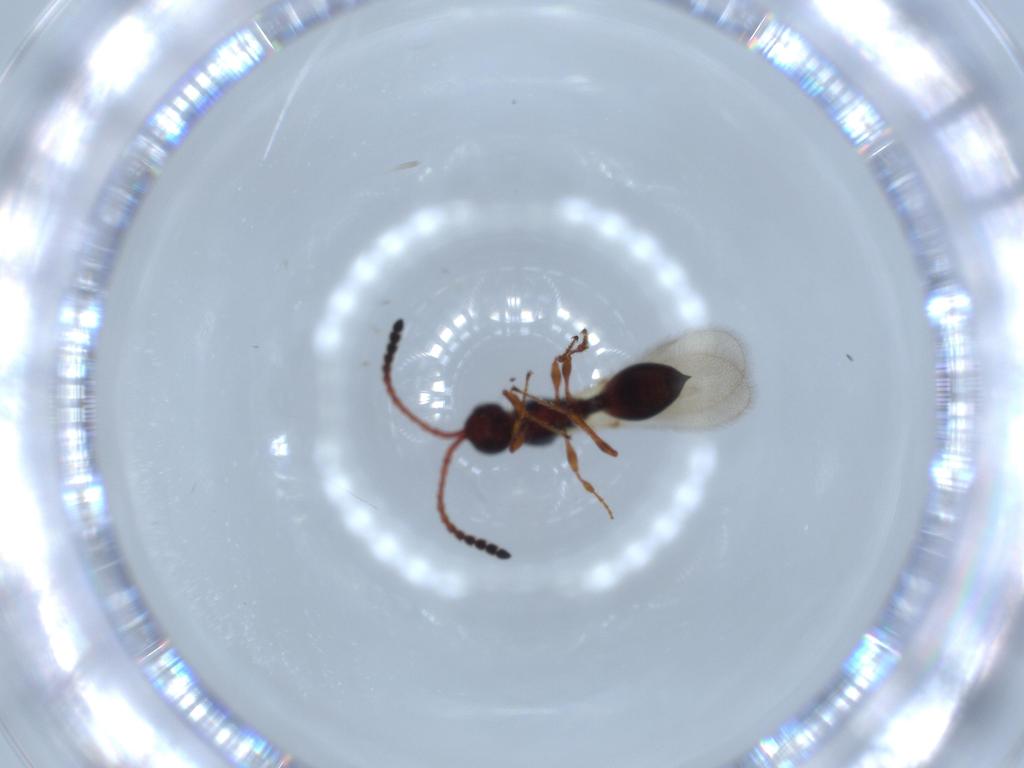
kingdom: Animalia
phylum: Arthropoda
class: Insecta
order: Hymenoptera
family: Diapriidae
